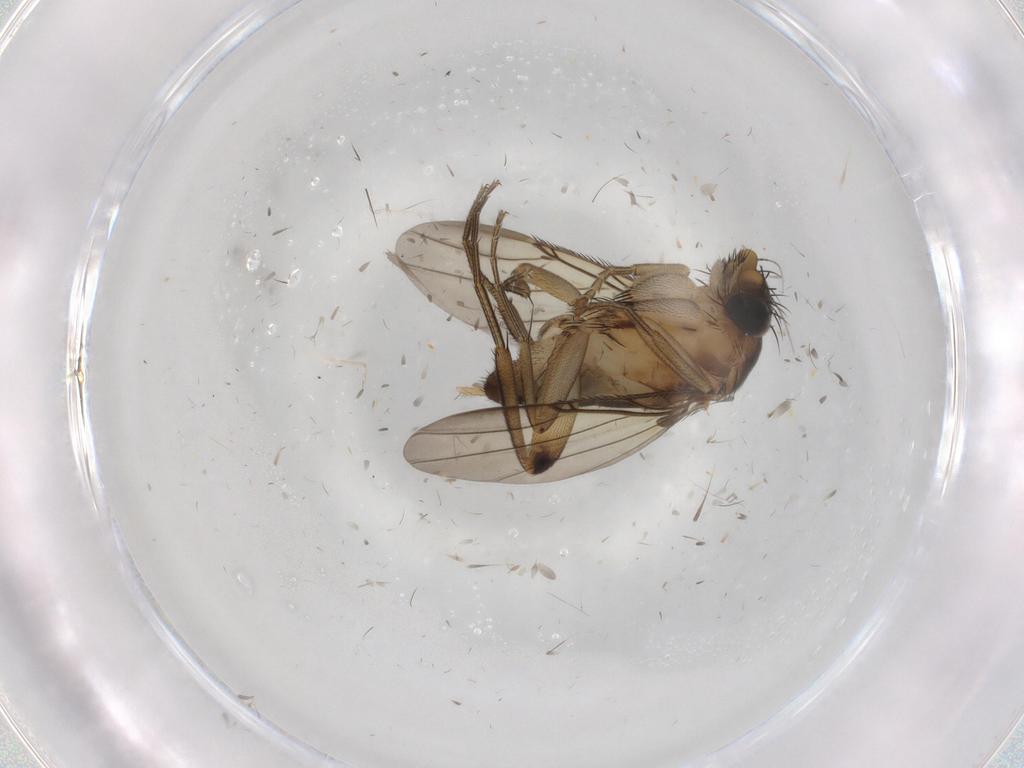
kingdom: Animalia
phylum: Arthropoda
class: Insecta
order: Diptera
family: Phoridae
